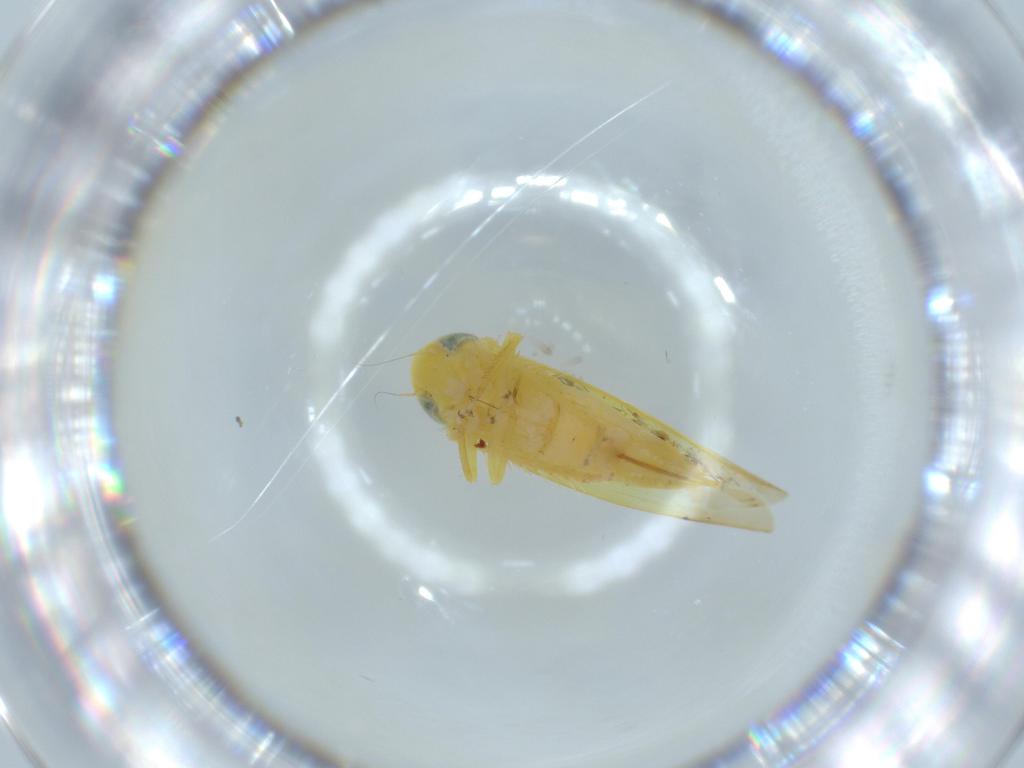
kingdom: Animalia
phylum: Arthropoda
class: Insecta
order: Hemiptera
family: Cicadellidae
